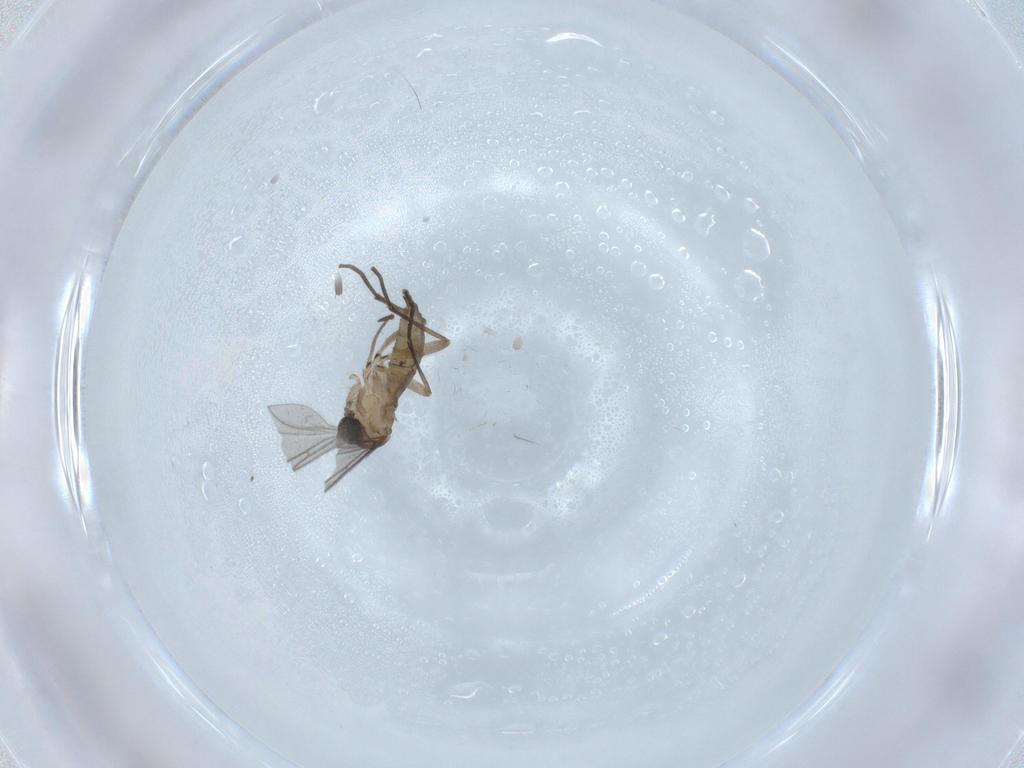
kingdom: Animalia
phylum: Arthropoda
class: Insecta
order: Diptera
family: Sciaridae
